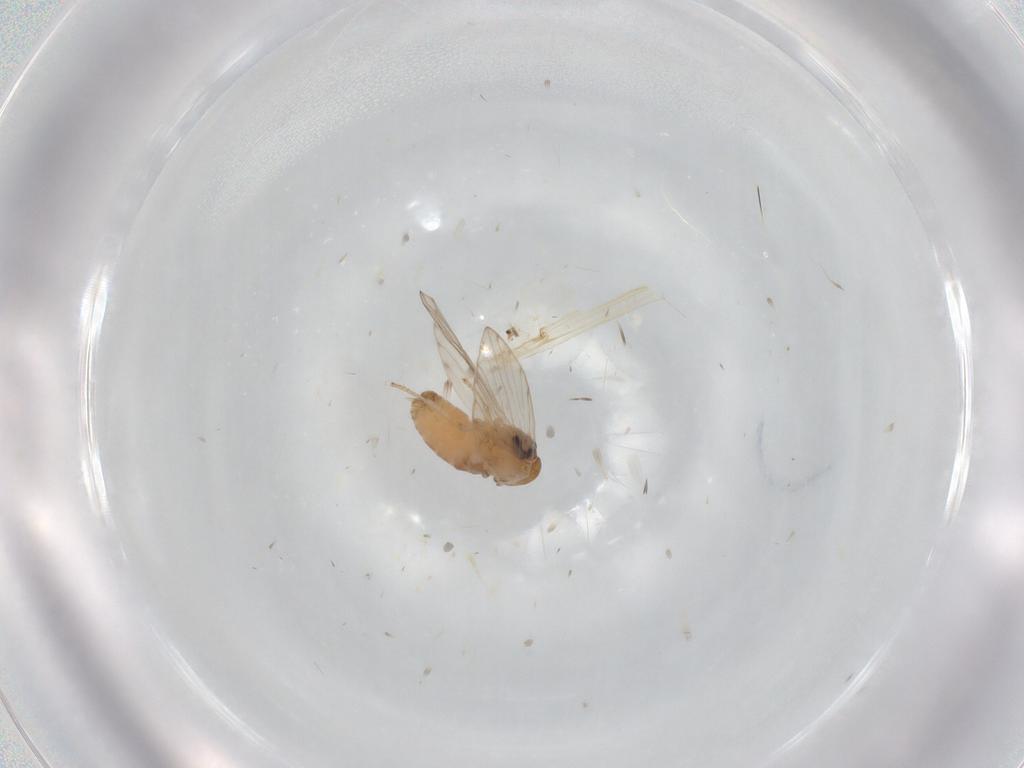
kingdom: Animalia
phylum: Arthropoda
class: Insecta
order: Diptera
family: Psychodidae
